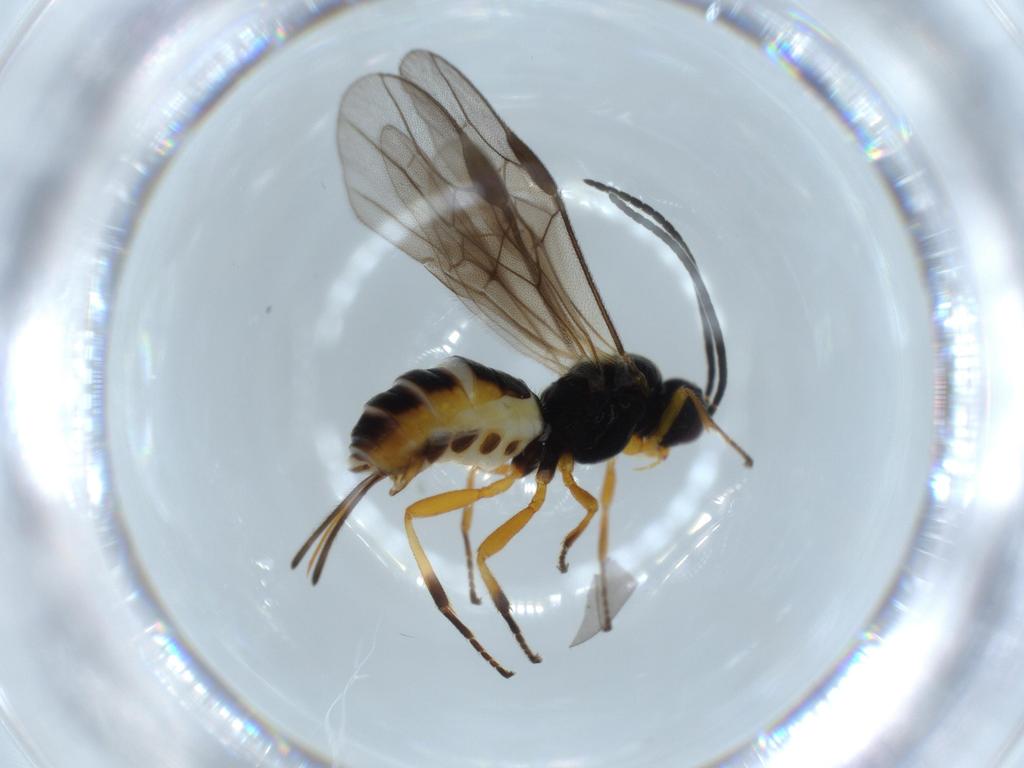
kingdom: Animalia
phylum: Arthropoda
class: Insecta
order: Hymenoptera
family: Braconidae
